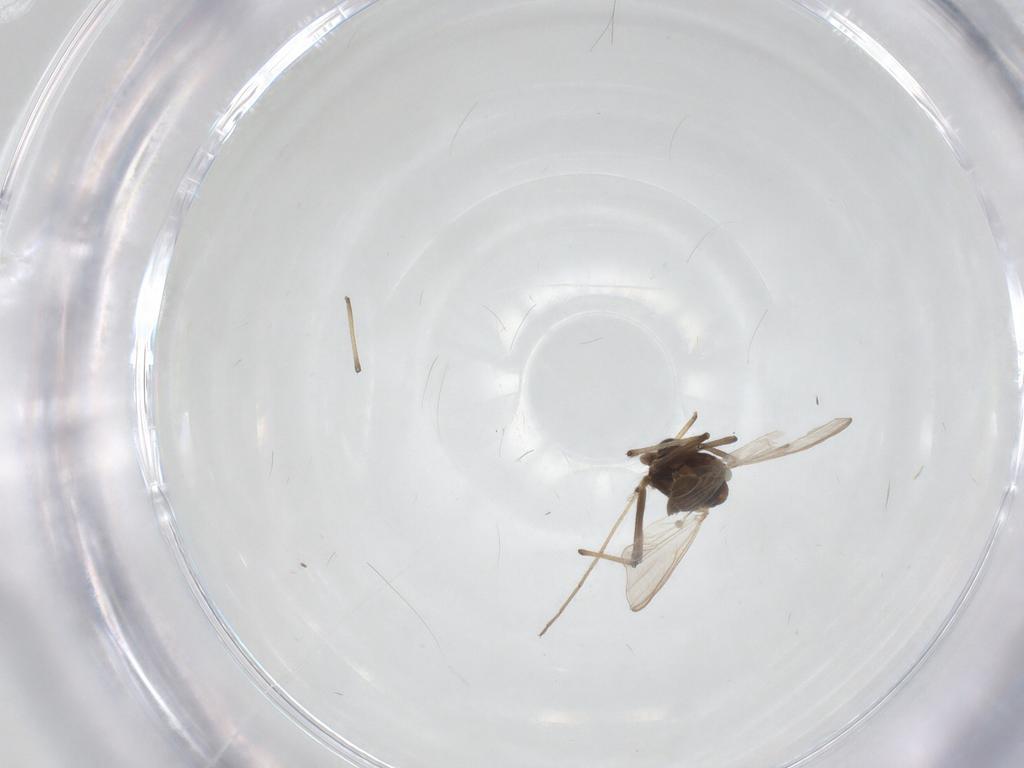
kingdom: Animalia
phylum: Arthropoda
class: Insecta
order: Diptera
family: Chironomidae
